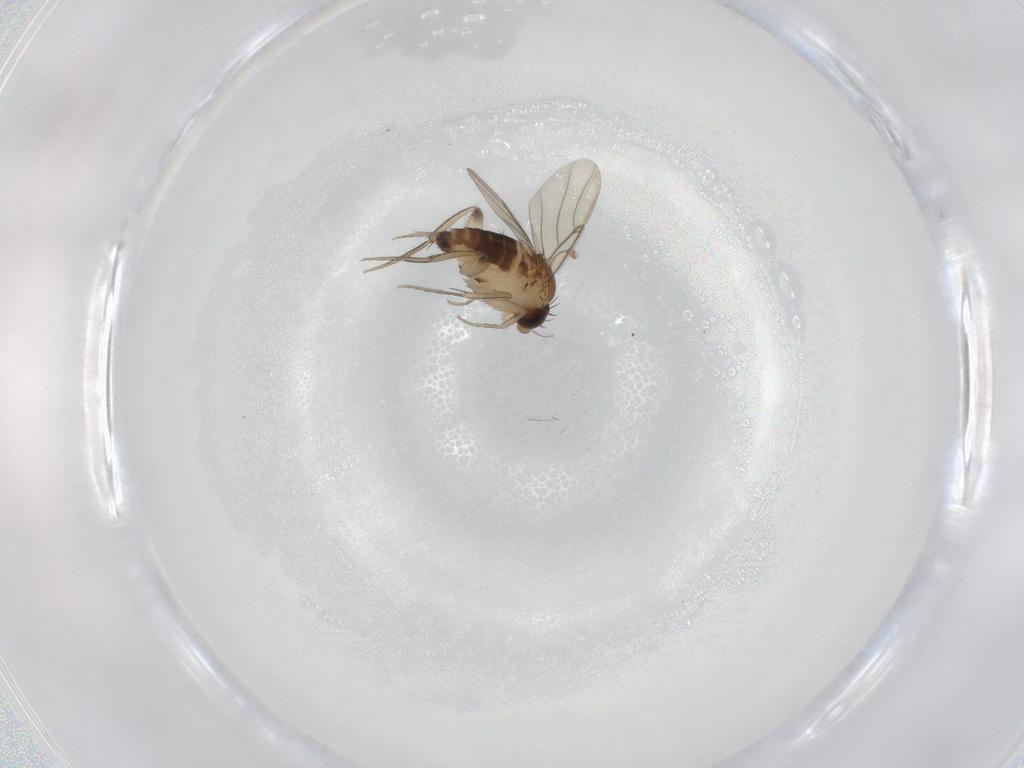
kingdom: Animalia
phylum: Arthropoda
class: Insecta
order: Diptera
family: Phoridae
